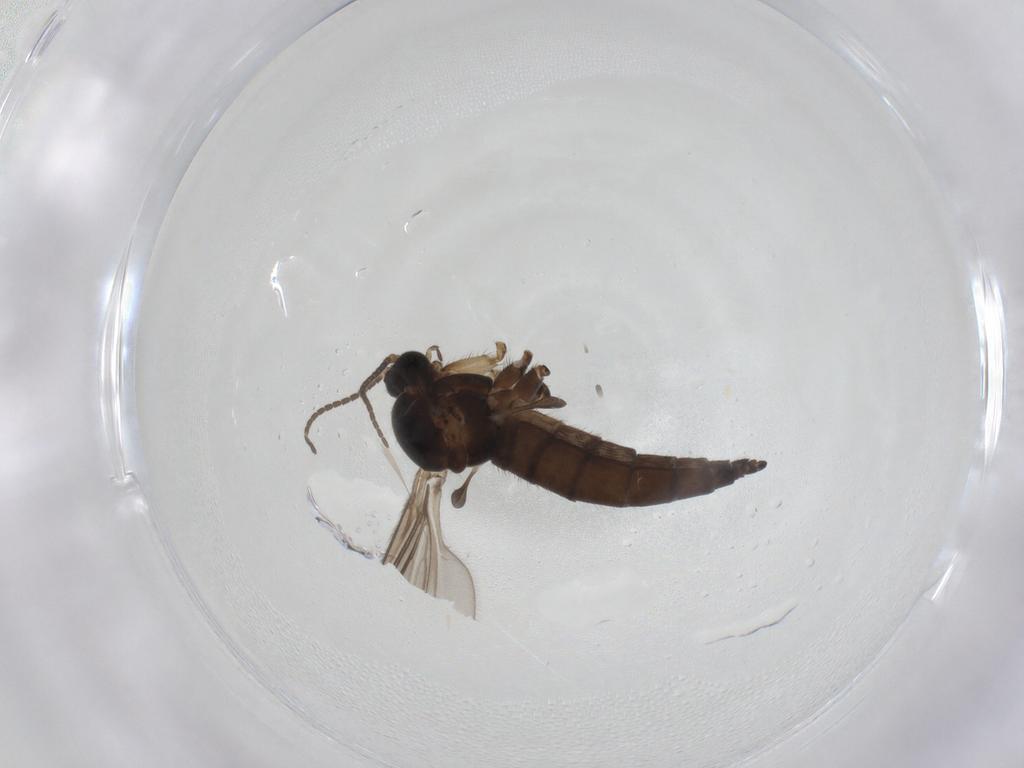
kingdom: Animalia
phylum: Arthropoda
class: Insecta
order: Diptera
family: Sciaridae
